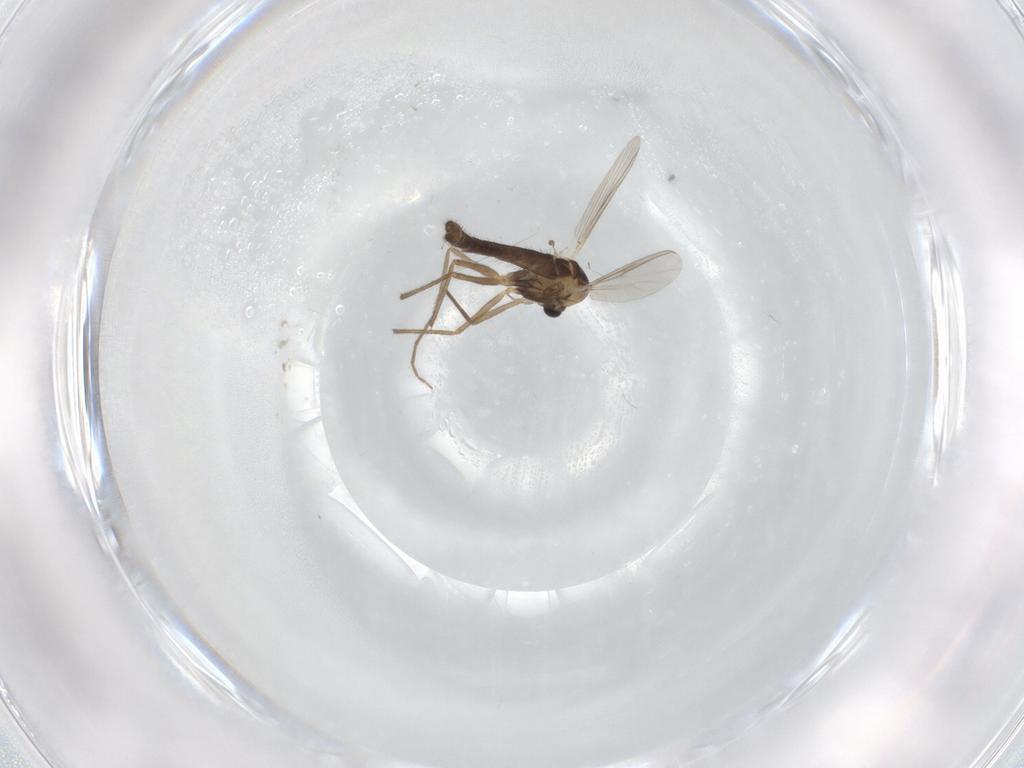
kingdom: Animalia
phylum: Arthropoda
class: Insecta
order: Diptera
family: Chironomidae
